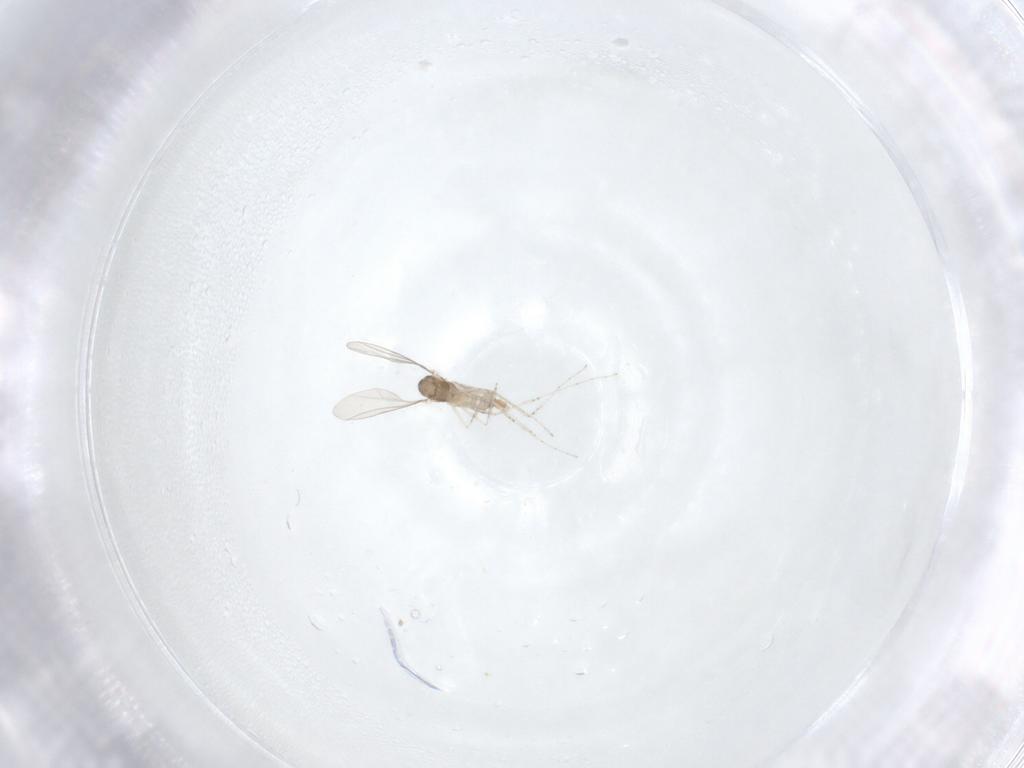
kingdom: Animalia
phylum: Arthropoda
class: Insecta
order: Diptera
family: Cecidomyiidae
